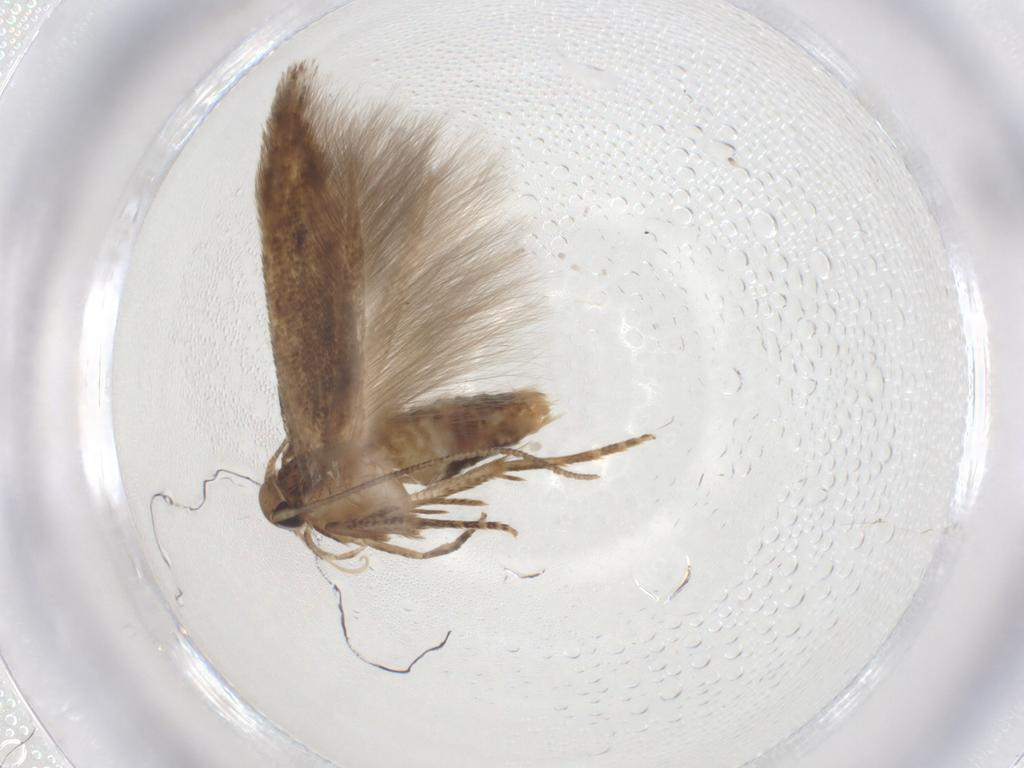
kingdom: Animalia
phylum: Arthropoda
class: Insecta
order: Lepidoptera
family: Cosmopterigidae
